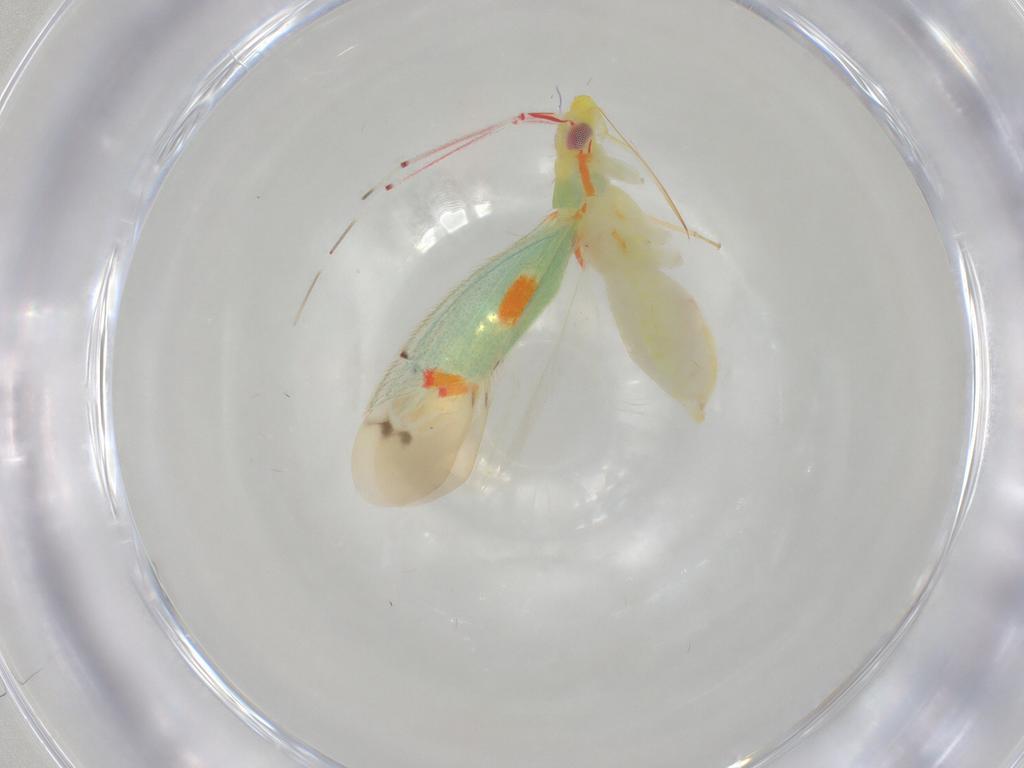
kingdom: Animalia
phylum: Arthropoda
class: Insecta
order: Hemiptera
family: Miridae
